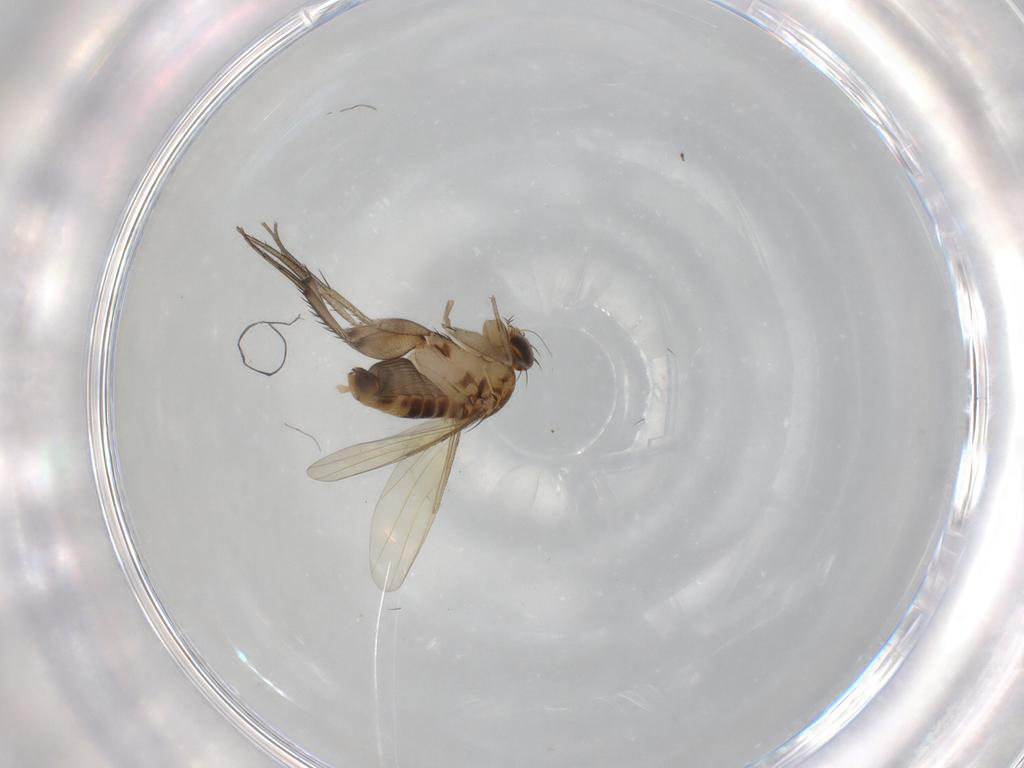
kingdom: Animalia
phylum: Arthropoda
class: Insecta
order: Diptera
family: Phoridae
